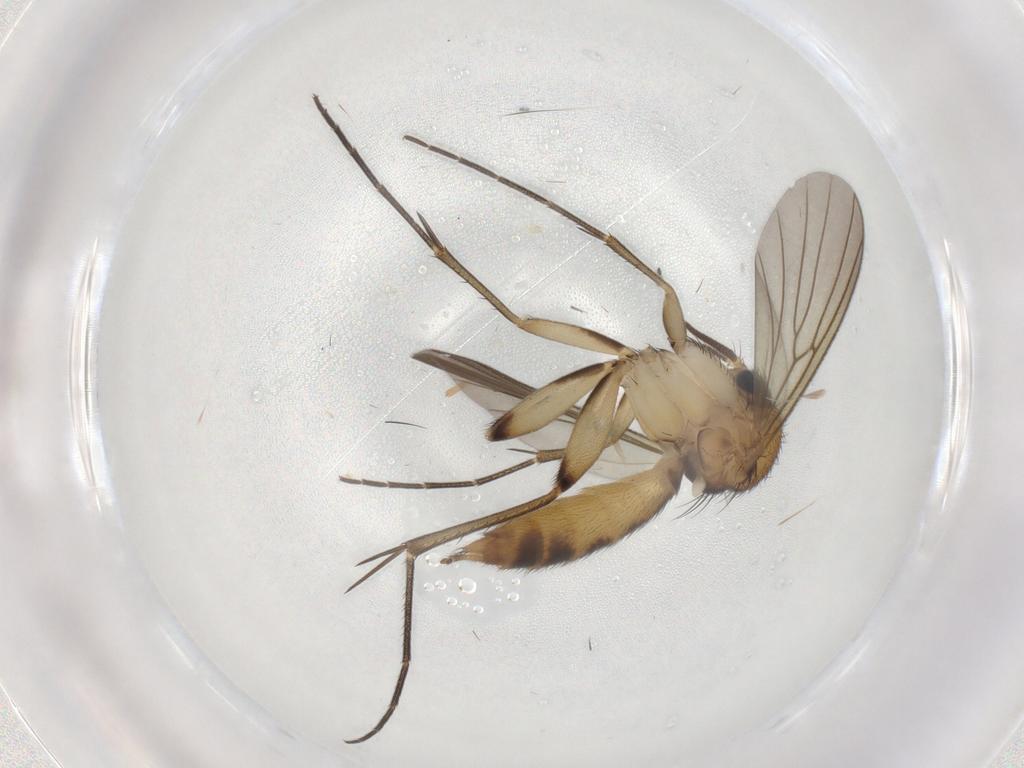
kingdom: Animalia
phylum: Arthropoda
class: Insecta
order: Diptera
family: Mycetophilidae
